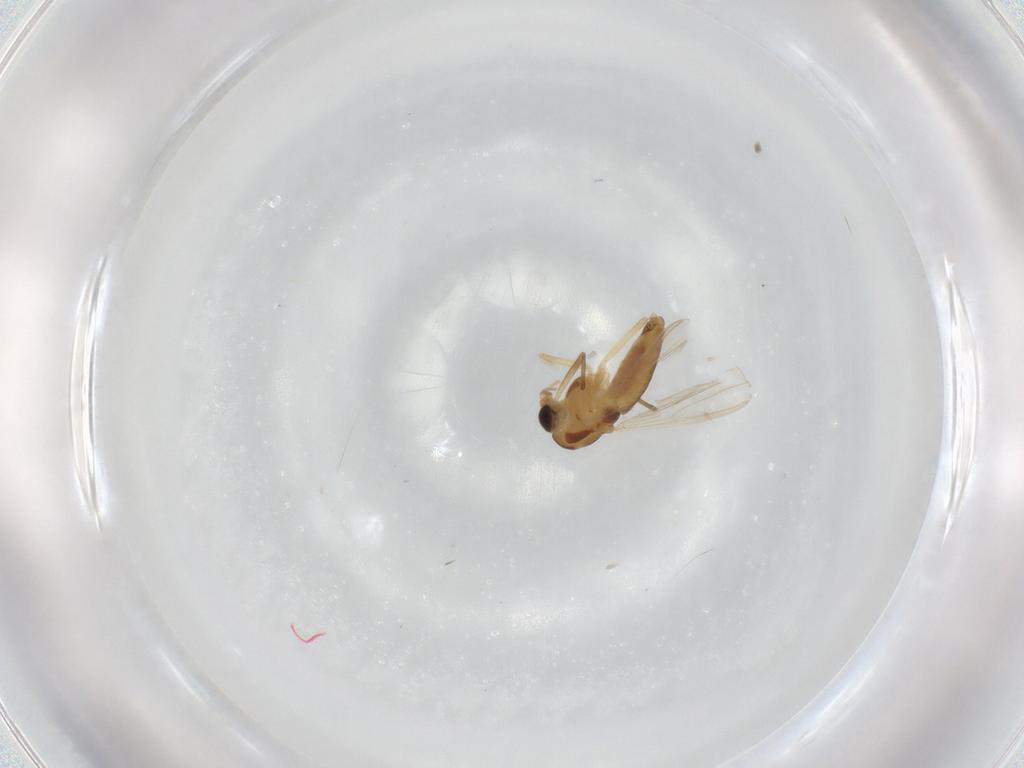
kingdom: Animalia
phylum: Arthropoda
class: Insecta
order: Diptera
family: Chironomidae
